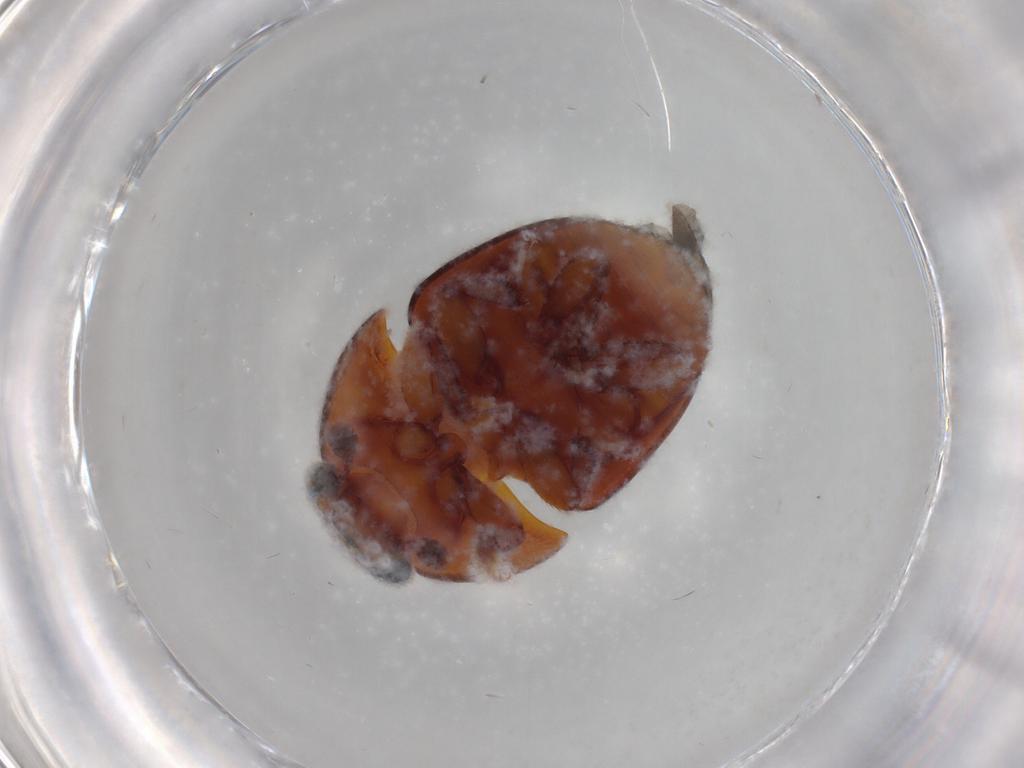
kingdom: Animalia
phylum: Arthropoda
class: Insecta
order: Coleoptera
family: Nitidulidae
